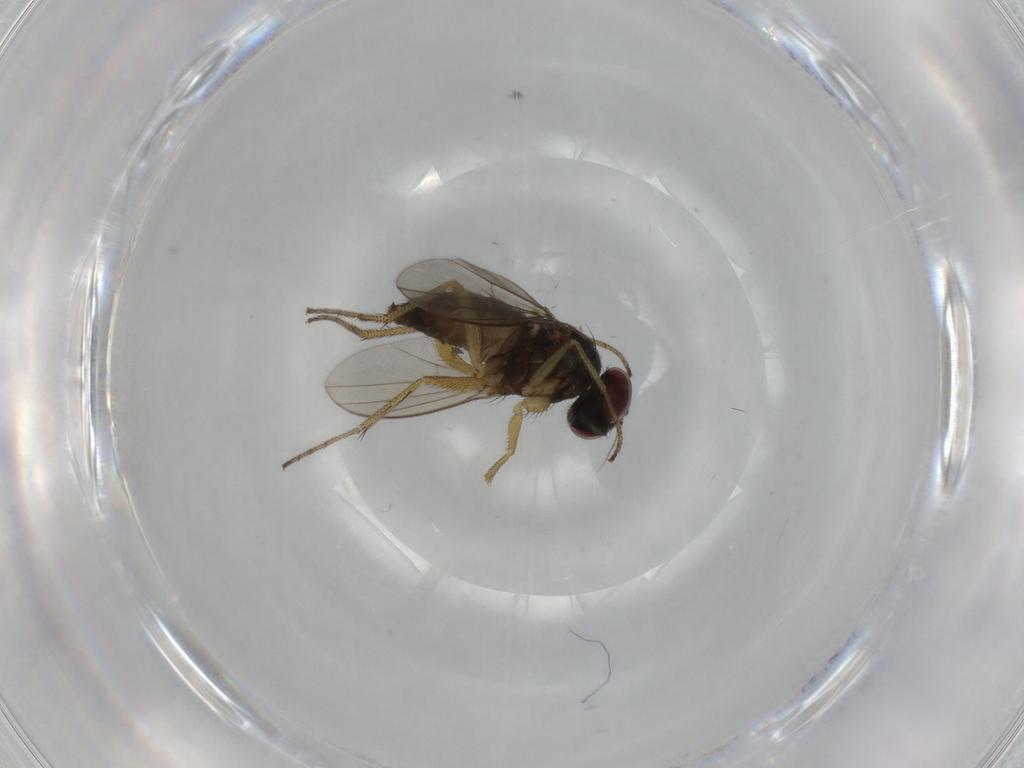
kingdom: Animalia
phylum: Arthropoda
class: Insecta
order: Diptera
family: Dolichopodidae
